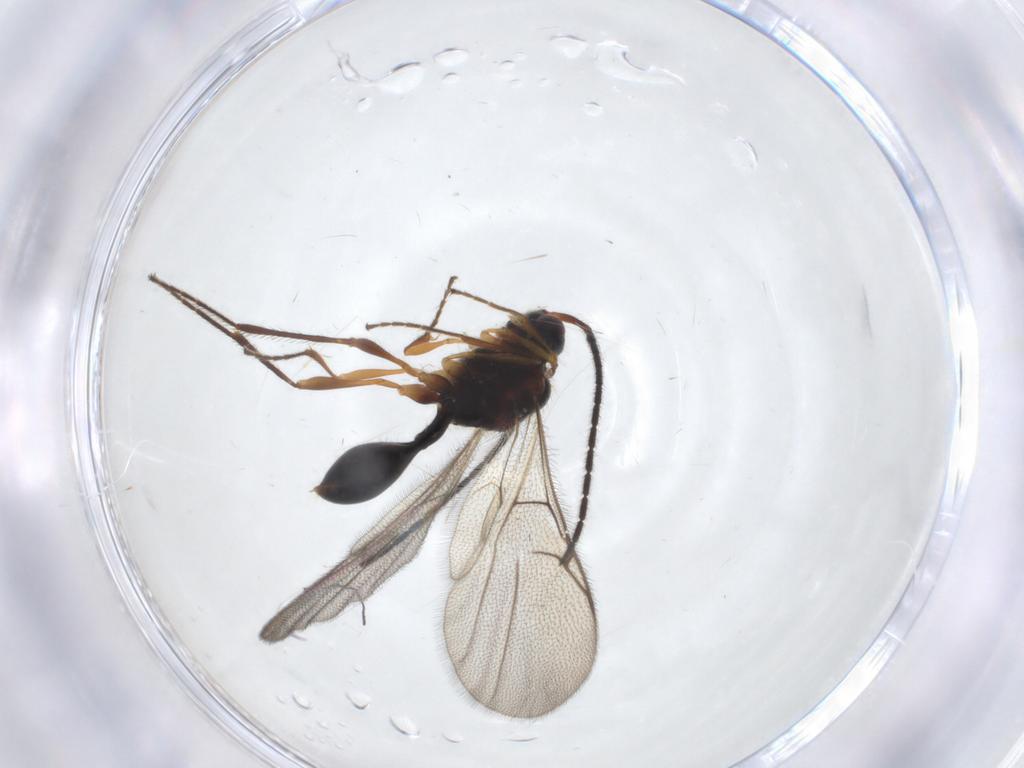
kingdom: Animalia
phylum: Arthropoda
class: Insecta
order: Hymenoptera
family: Diapriidae
